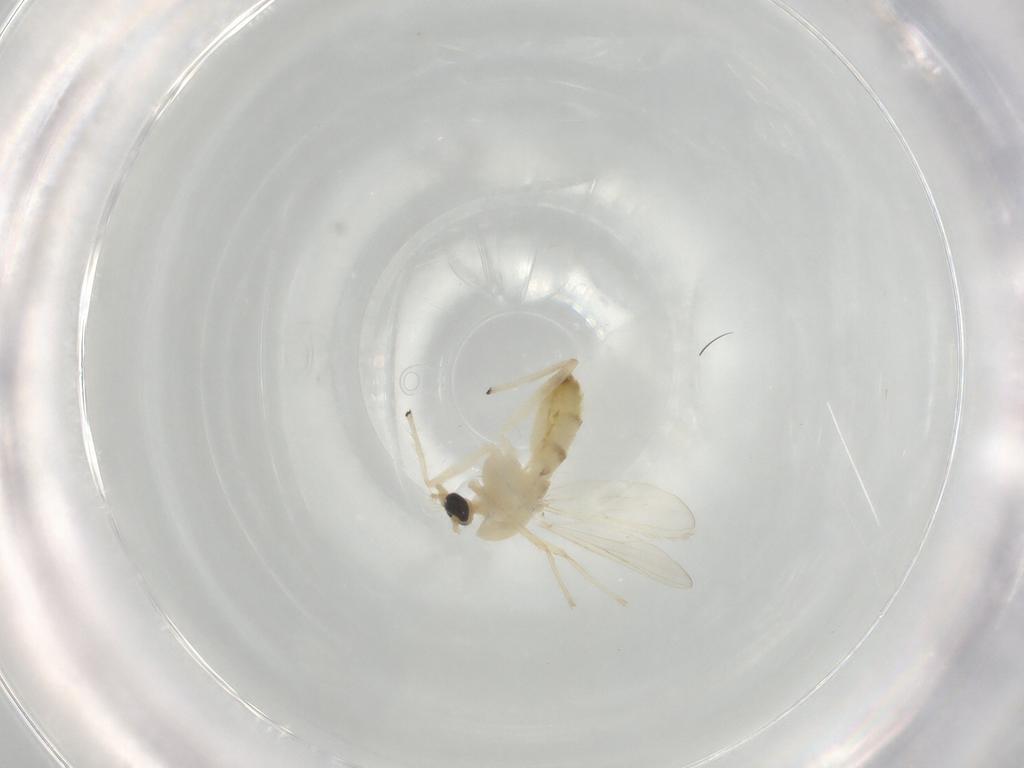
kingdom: Animalia
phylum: Arthropoda
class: Insecta
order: Diptera
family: Chironomidae
